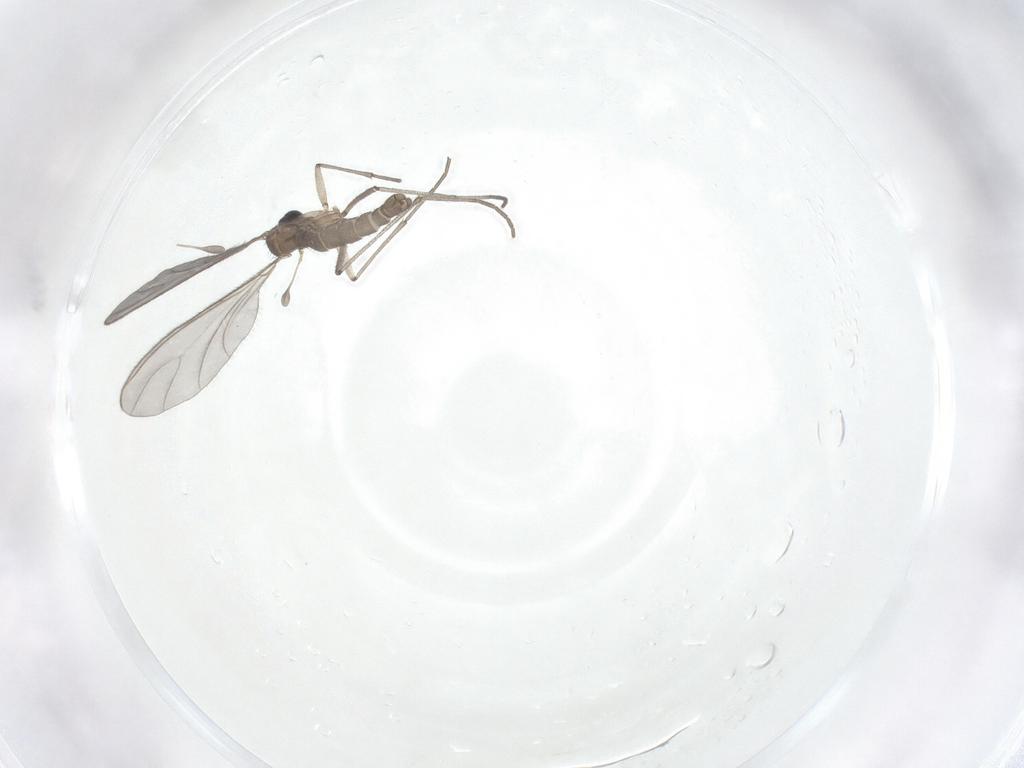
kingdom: Animalia
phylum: Arthropoda
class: Insecta
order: Diptera
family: Sciaridae
